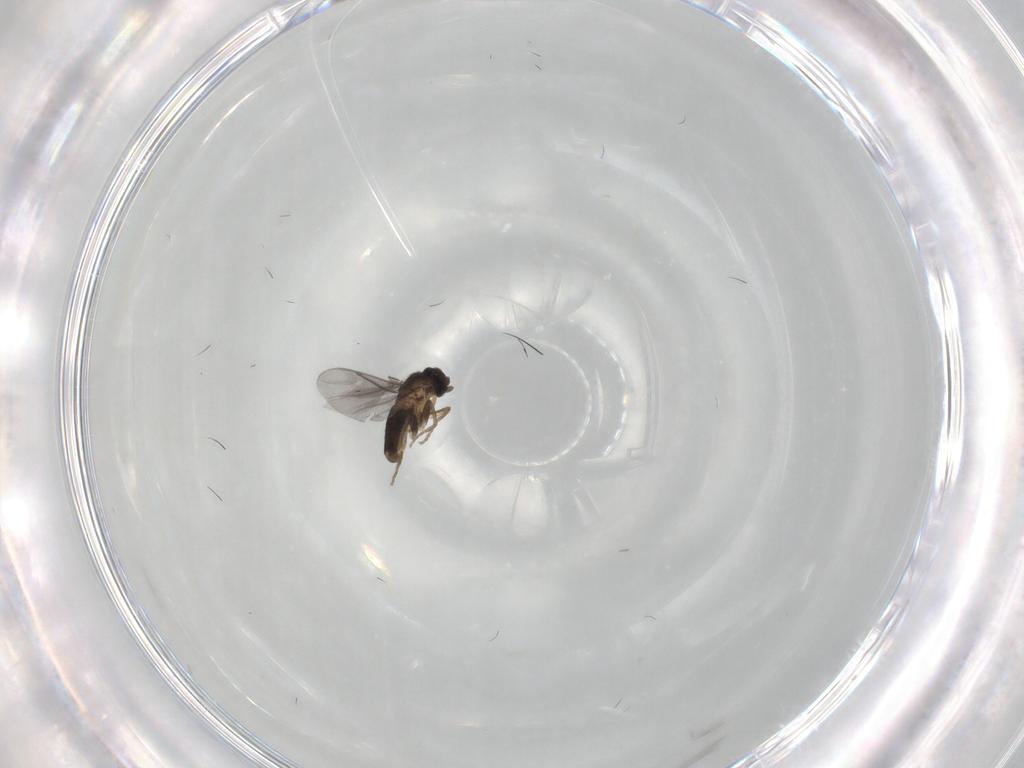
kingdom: Animalia
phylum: Arthropoda
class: Insecta
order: Diptera
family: Limoniidae
